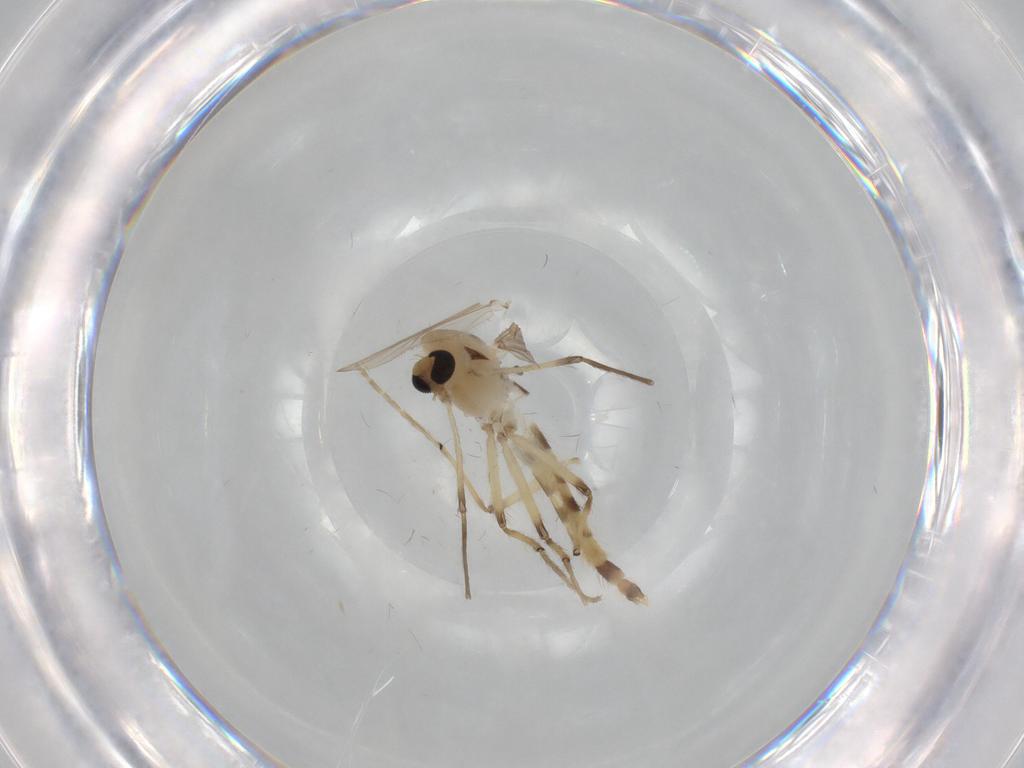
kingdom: Animalia
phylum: Arthropoda
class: Insecta
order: Diptera
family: Chironomidae
